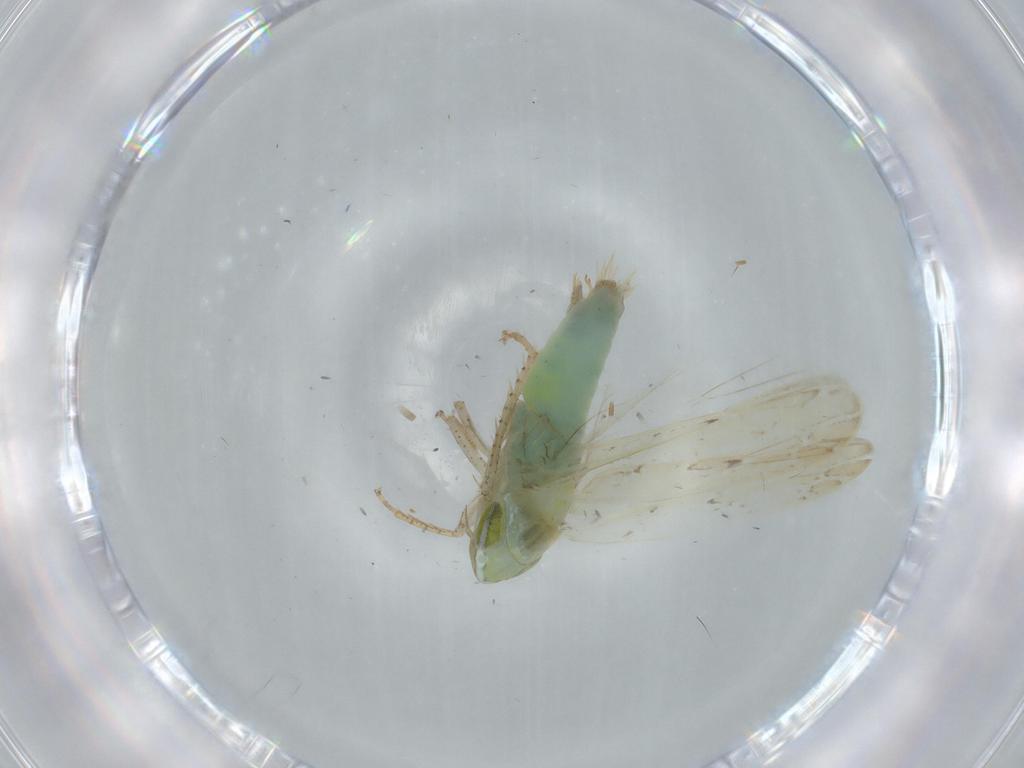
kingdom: Animalia
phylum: Arthropoda
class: Insecta
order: Hemiptera
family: Cicadellidae
